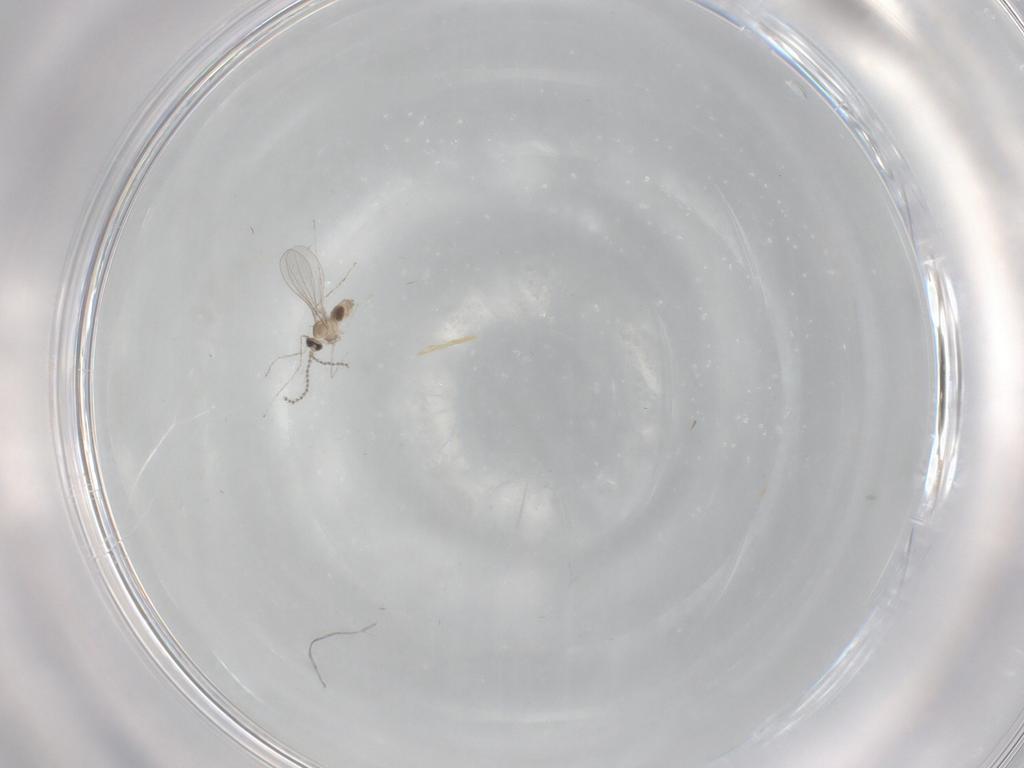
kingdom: Animalia
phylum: Arthropoda
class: Insecta
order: Diptera
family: Cecidomyiidae
